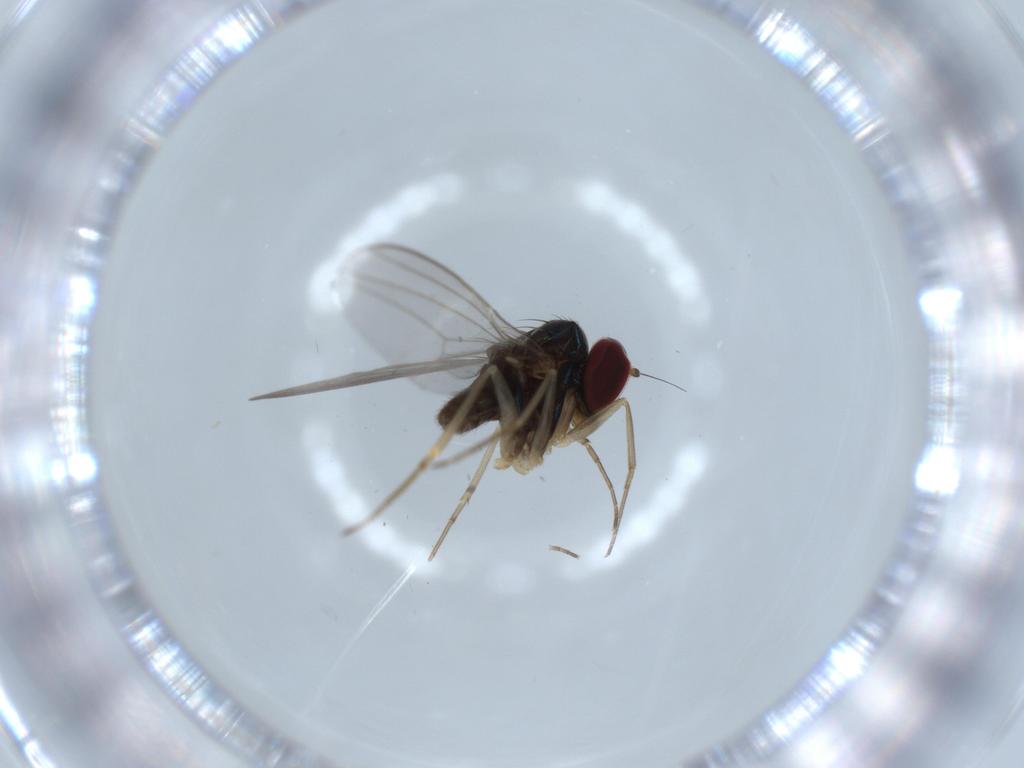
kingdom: Animalia
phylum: Arthropoda
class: Insecta
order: Diptera
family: Dolichopodidae
